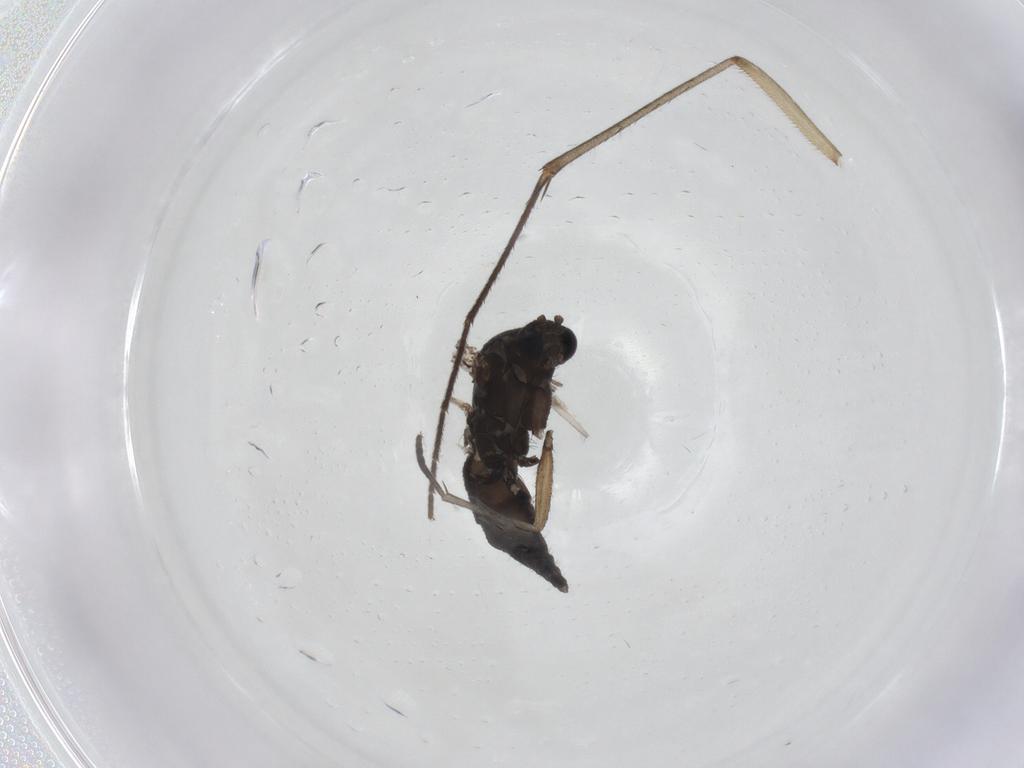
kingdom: Animalia
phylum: Arthropoda
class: Insecta
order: Diptera
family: Sciaridae
